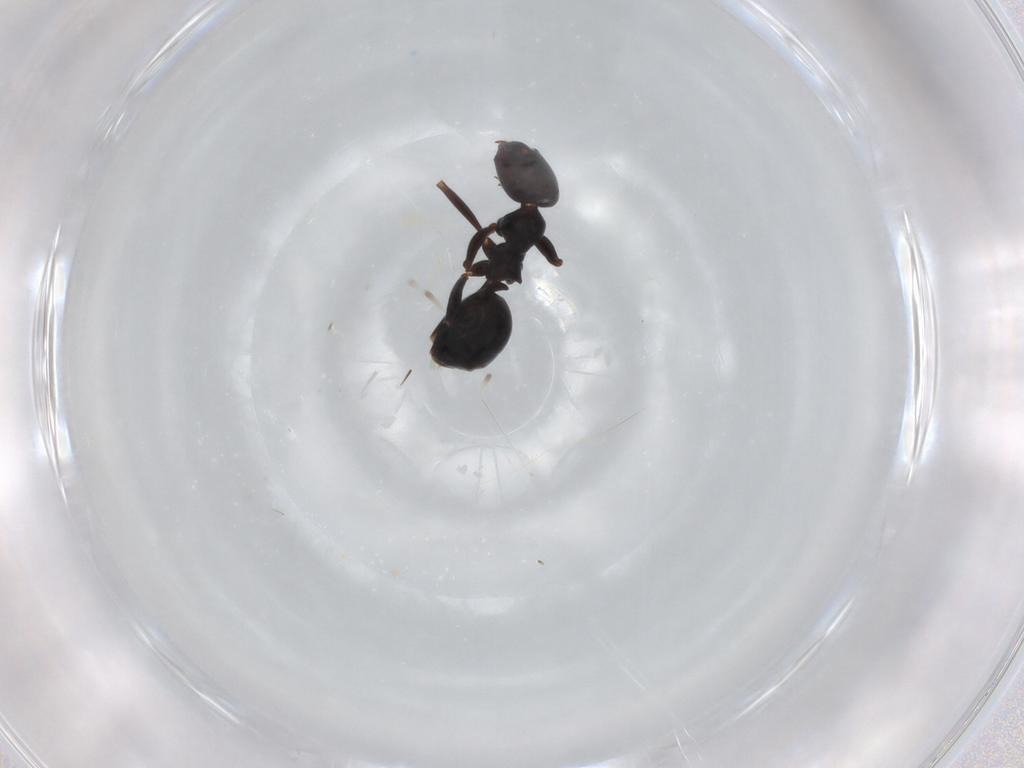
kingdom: Animalia
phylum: Arthropoda
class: Insecta
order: Hymenoptera
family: Formicidae
